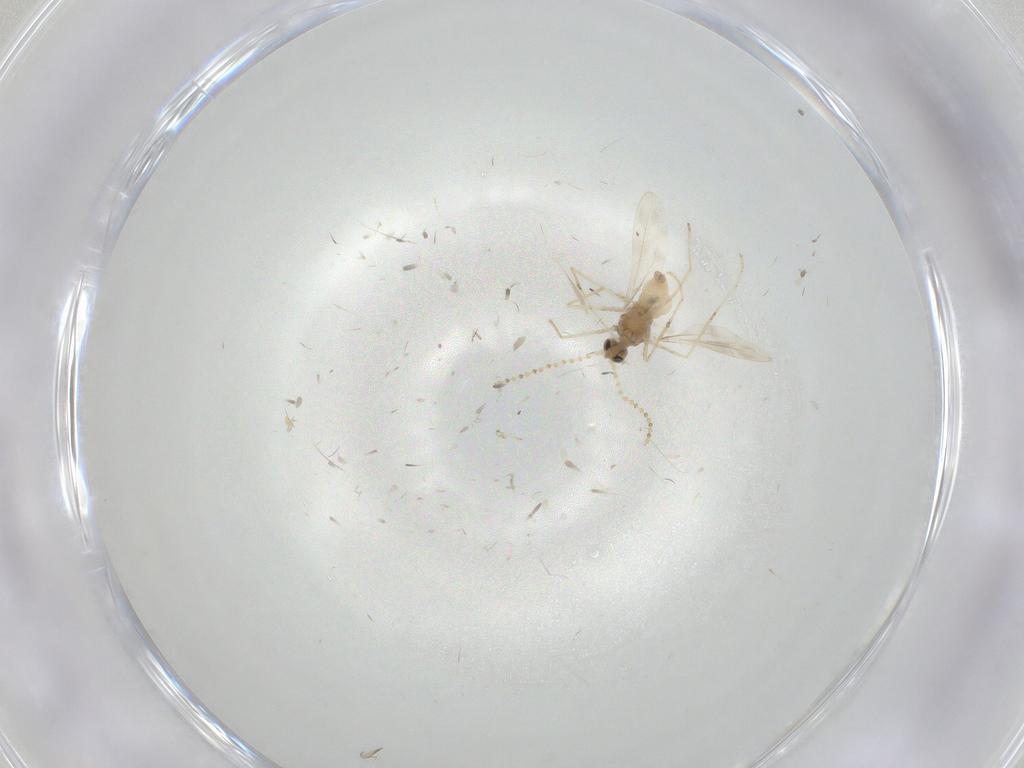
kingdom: Animalia
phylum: Arthropoda
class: Insecta
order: Diptera
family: Cecidomyiidae
